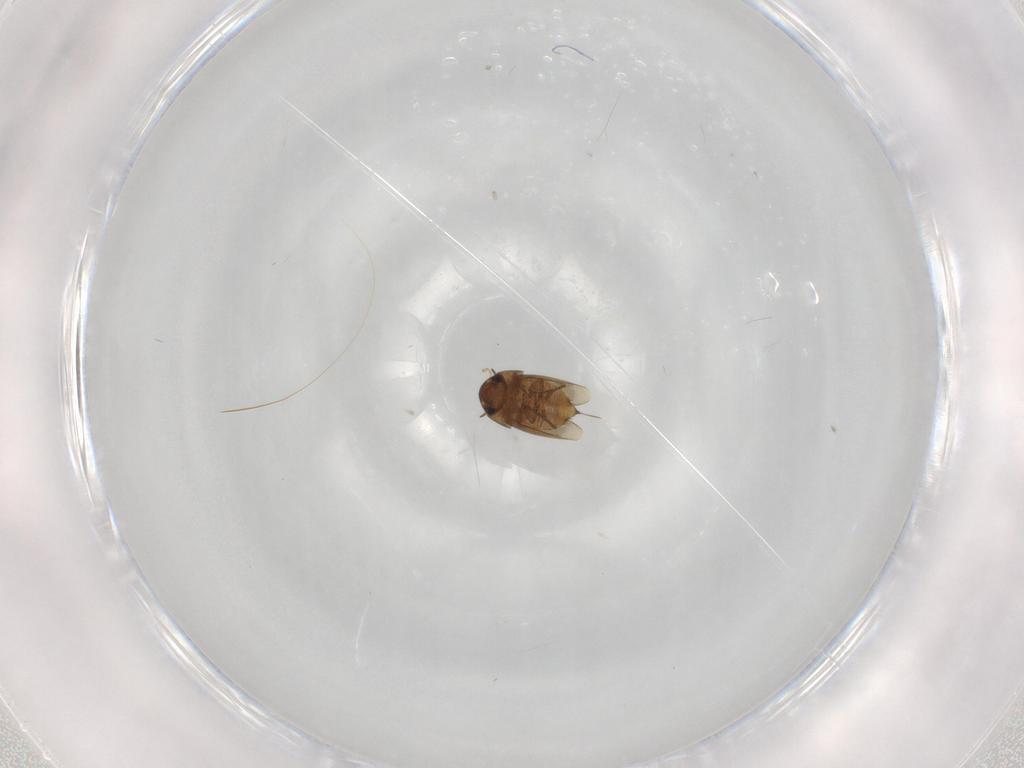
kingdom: Animalia
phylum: Arthropoda
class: Insecta
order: Coleoptera
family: Hydraenidae
